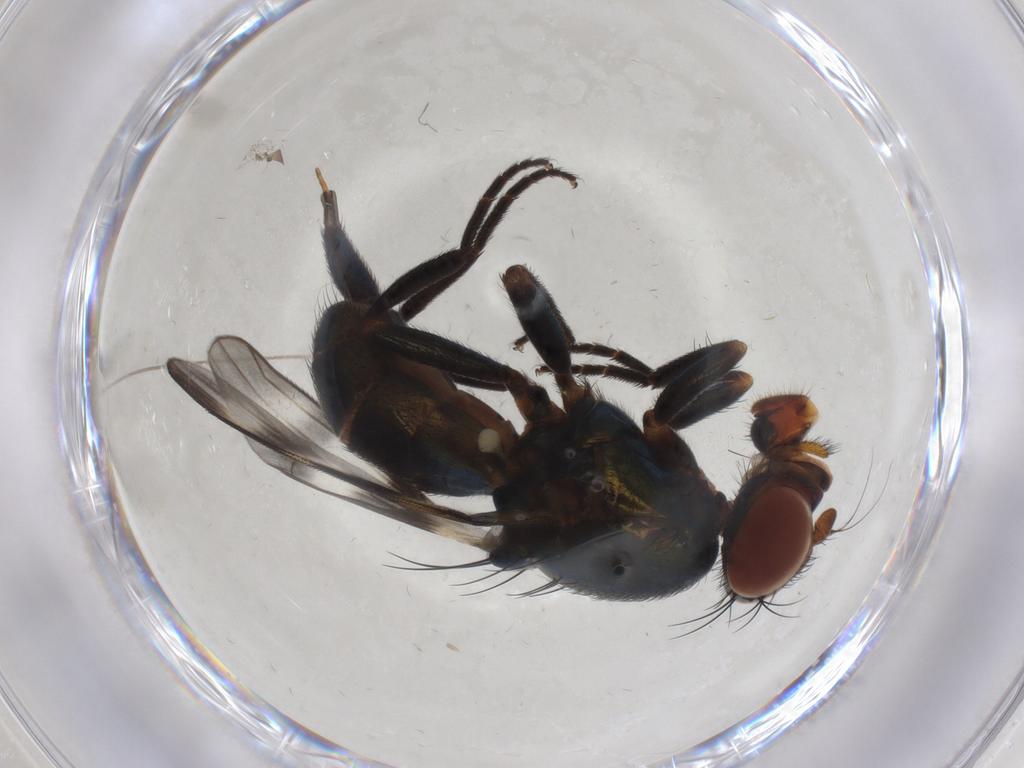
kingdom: Animalia
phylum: Arthropoda
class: Insecta
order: Diptera
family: Ulidiidae
